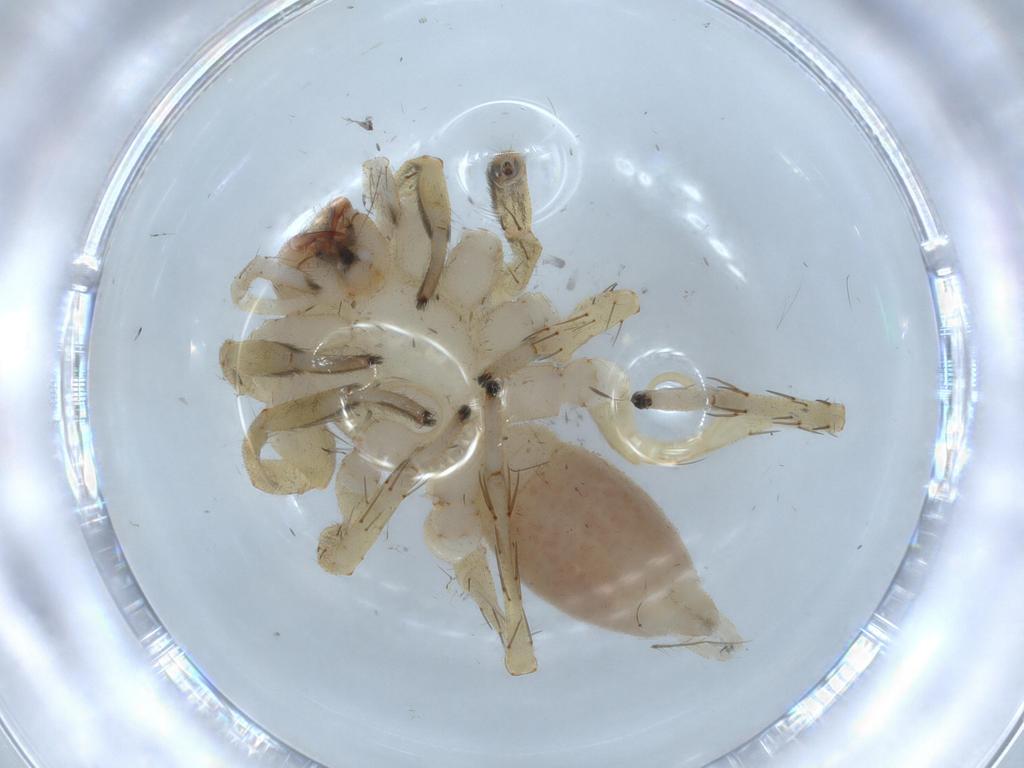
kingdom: Animalia
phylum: Arthropoda
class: Arachnida
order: Araneae
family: Linyphiidae
